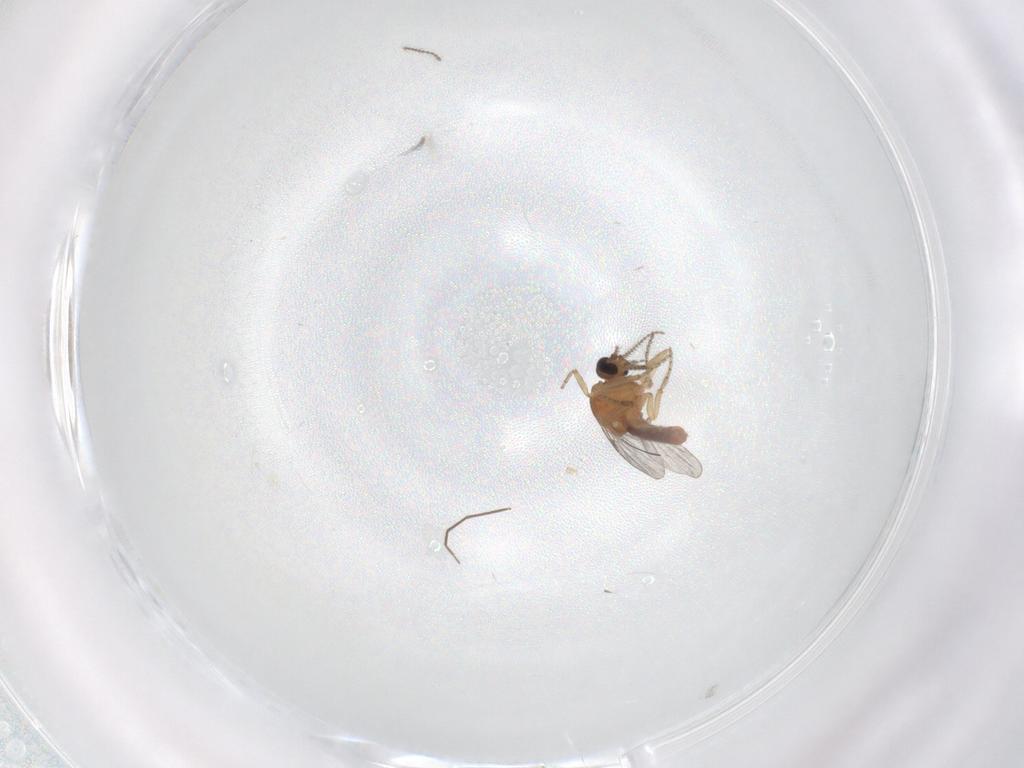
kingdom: Animalia
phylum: Arthropoda
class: Insecta
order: Diptera
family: Ceratopogonidae
